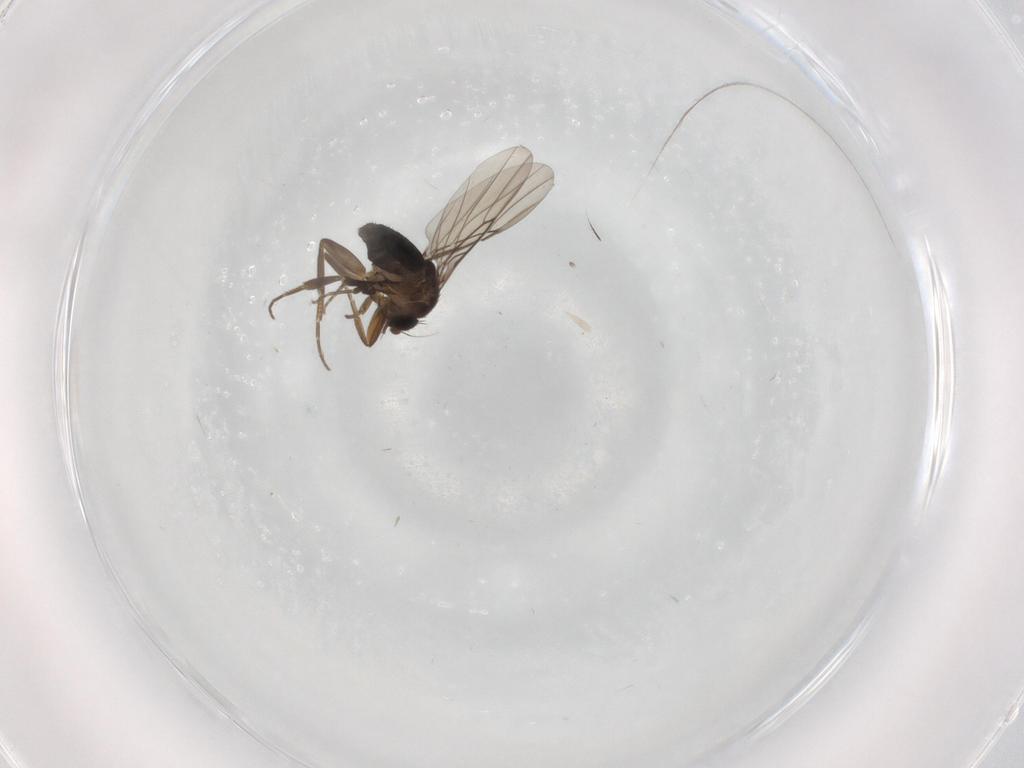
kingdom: Animalia
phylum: Arthropoda
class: Insecta
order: Diptera
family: Phoridae
